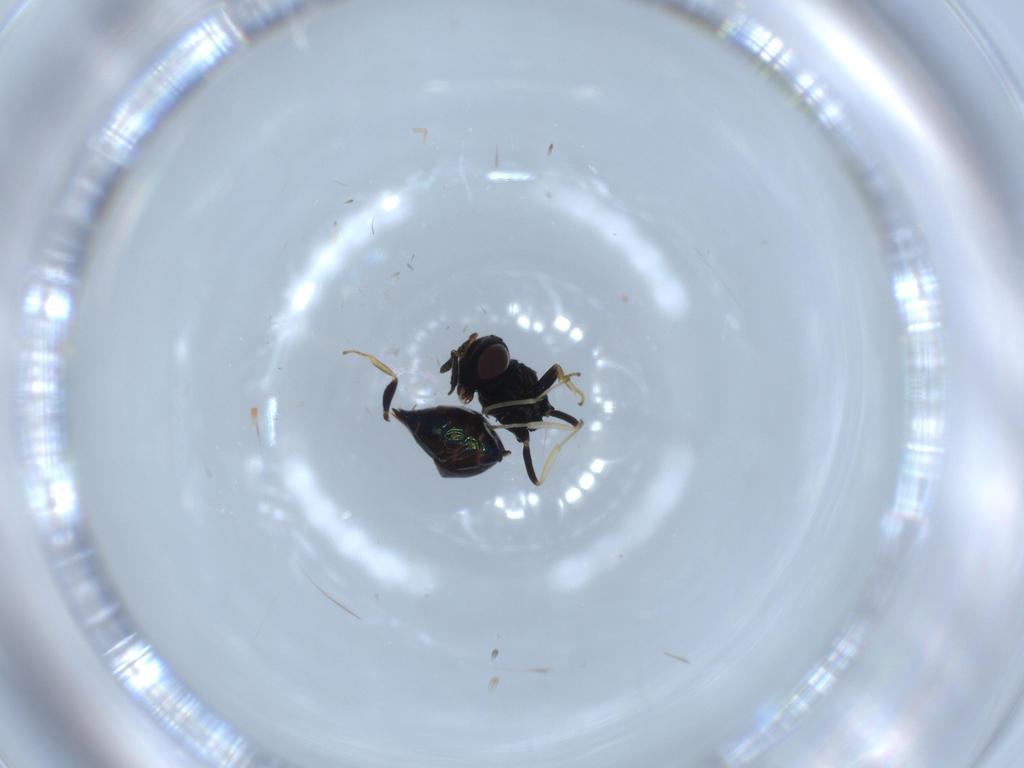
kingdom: Animalia
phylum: Arthropoda
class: Insecta
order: Hymenoptera
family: Pteromalidae
